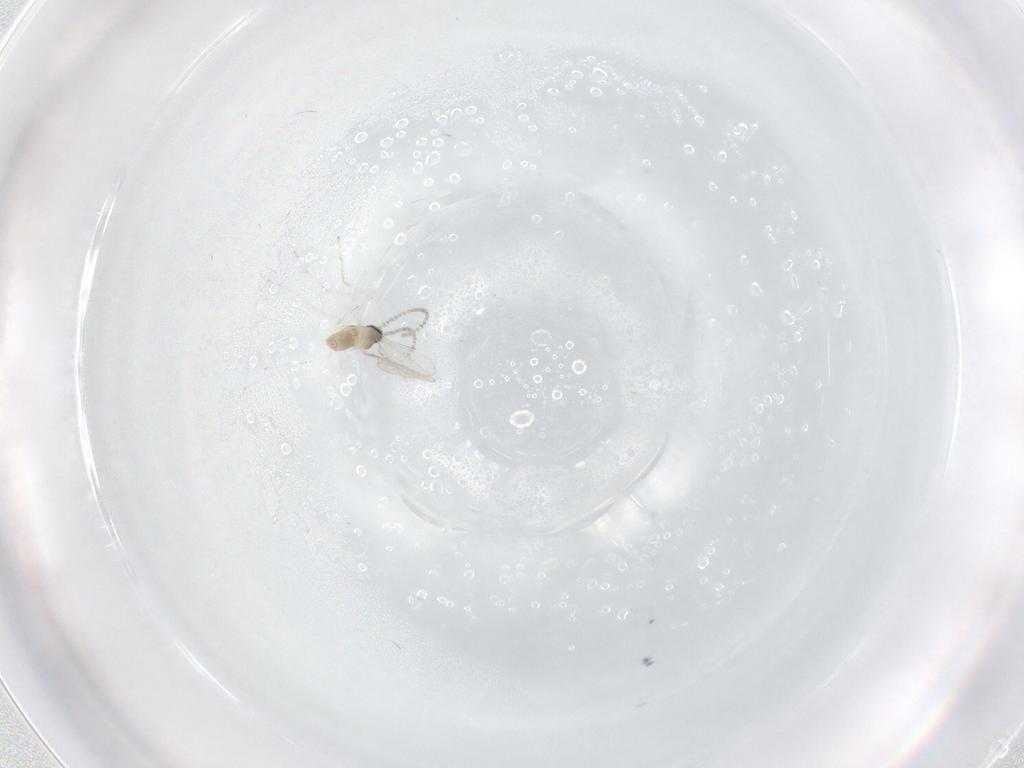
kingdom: Animalia
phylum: Arthropoda
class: Insecta
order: Diptera
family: Cecidomyiidae
